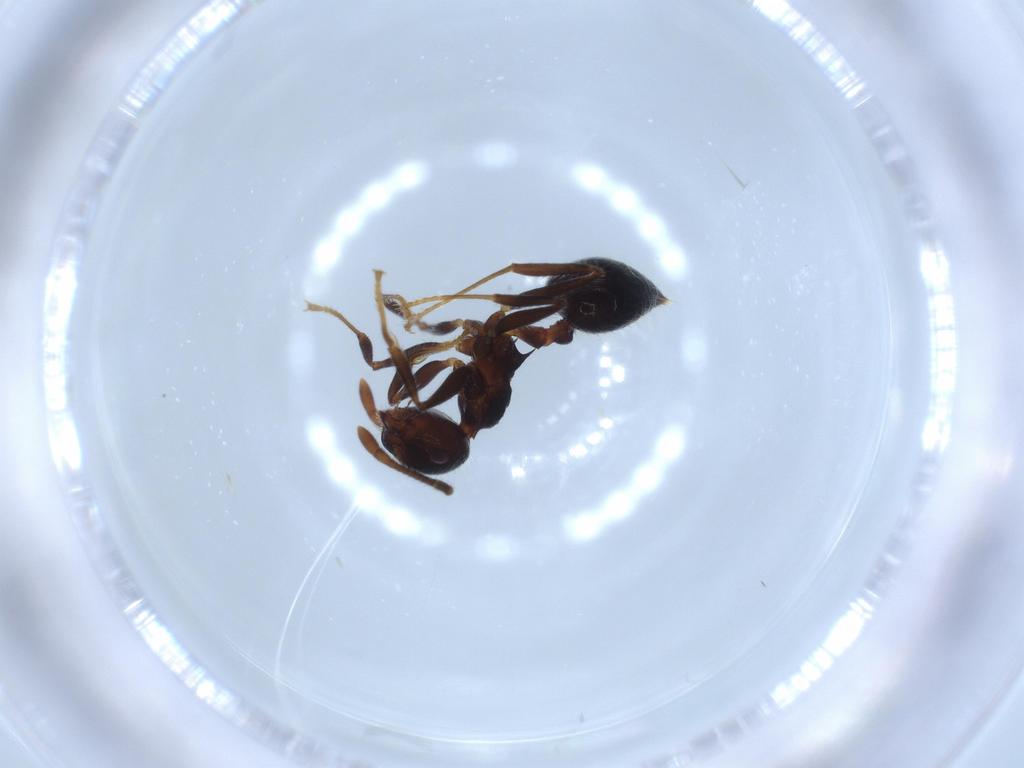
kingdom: Animalia
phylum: Arthropoda
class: Insecta
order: Hymenoptera
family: Formicidae
